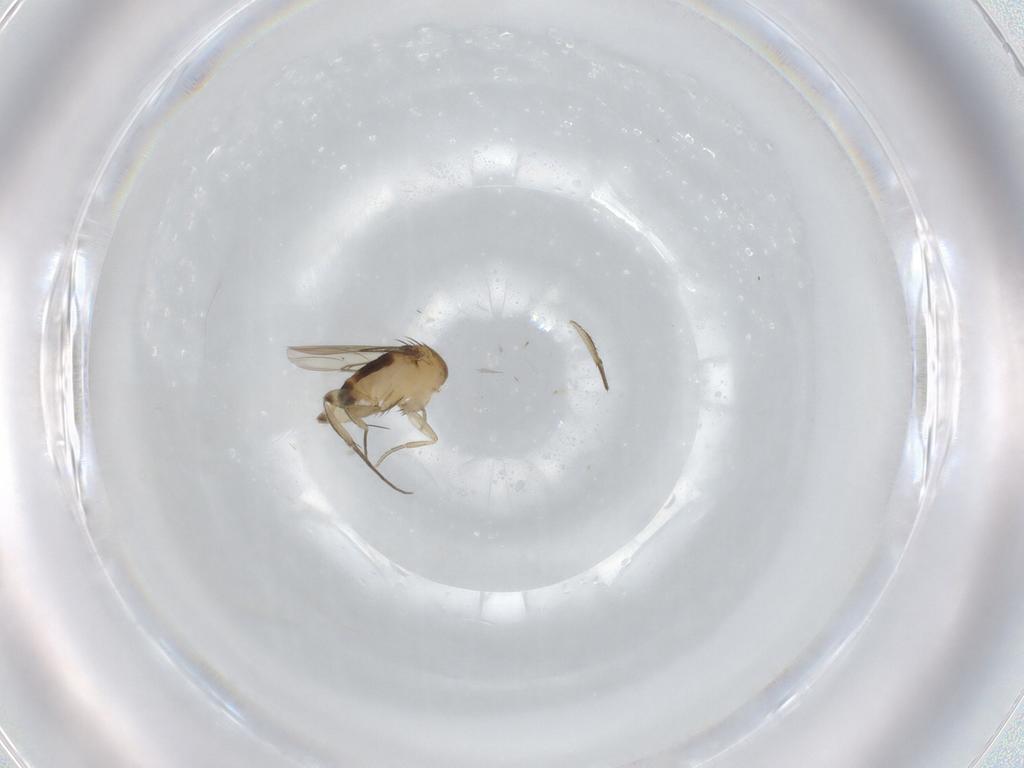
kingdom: Animalia
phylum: Arthropoda
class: Insecta
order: Diptera
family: Phoridae
